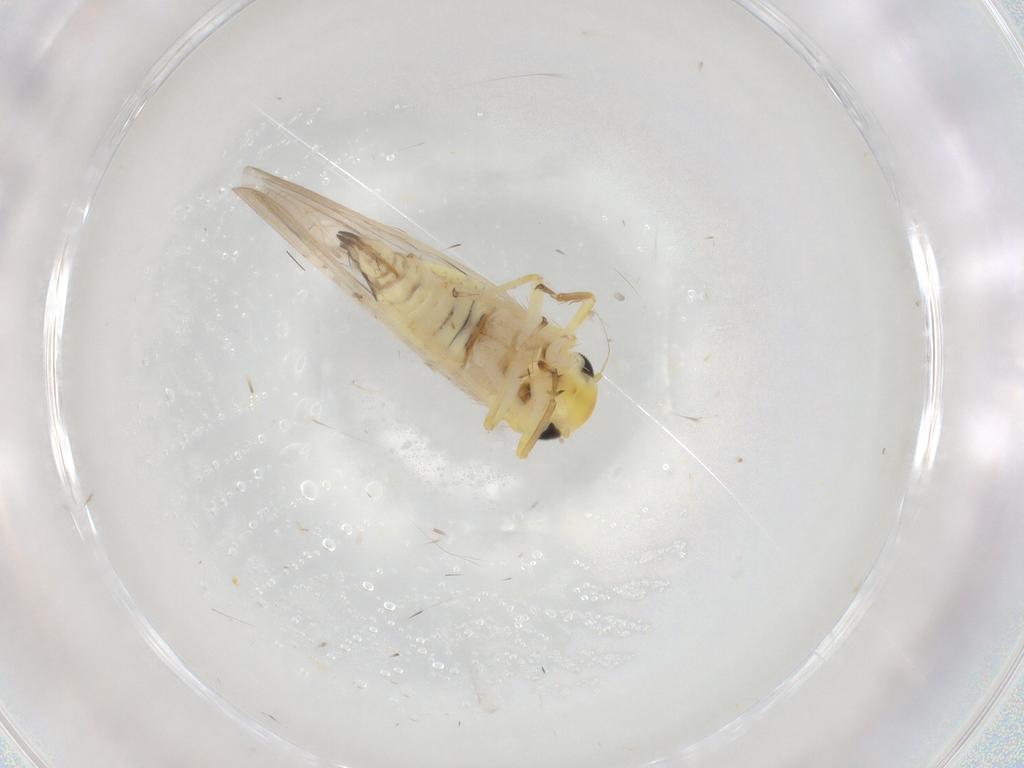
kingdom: Animalia
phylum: Arthropoda
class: Insecta
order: Hemiptera
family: Cicadellidae
